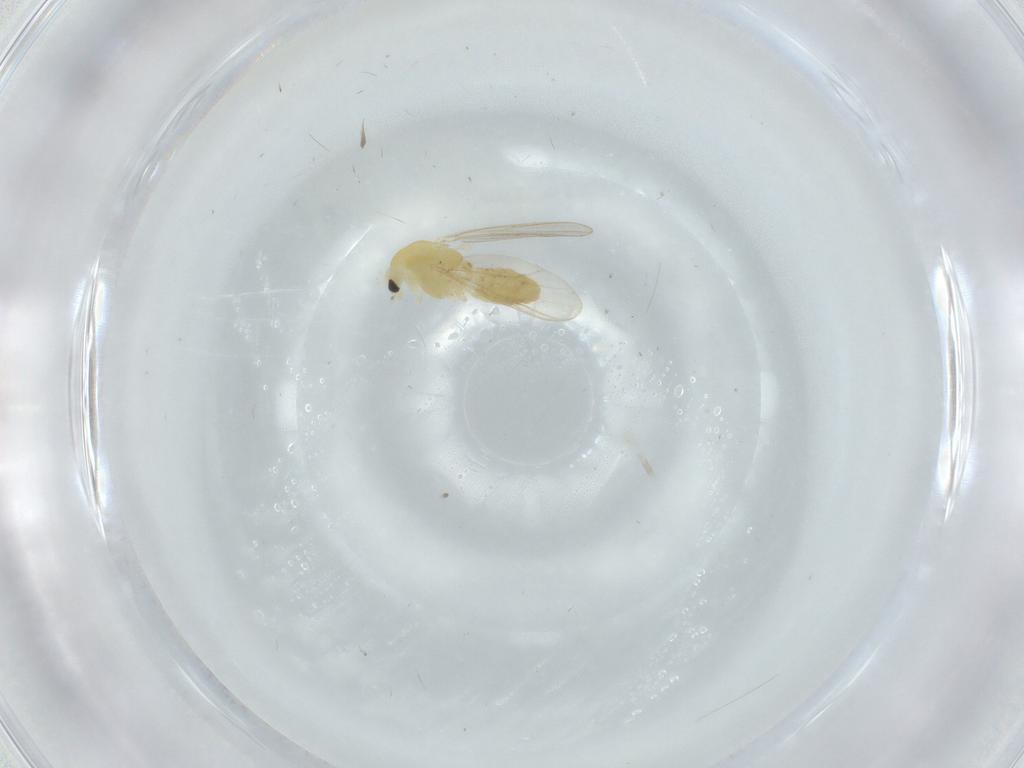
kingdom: Animalia
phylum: Arthropoda
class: Insecta
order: Diptera
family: Chironomidae
